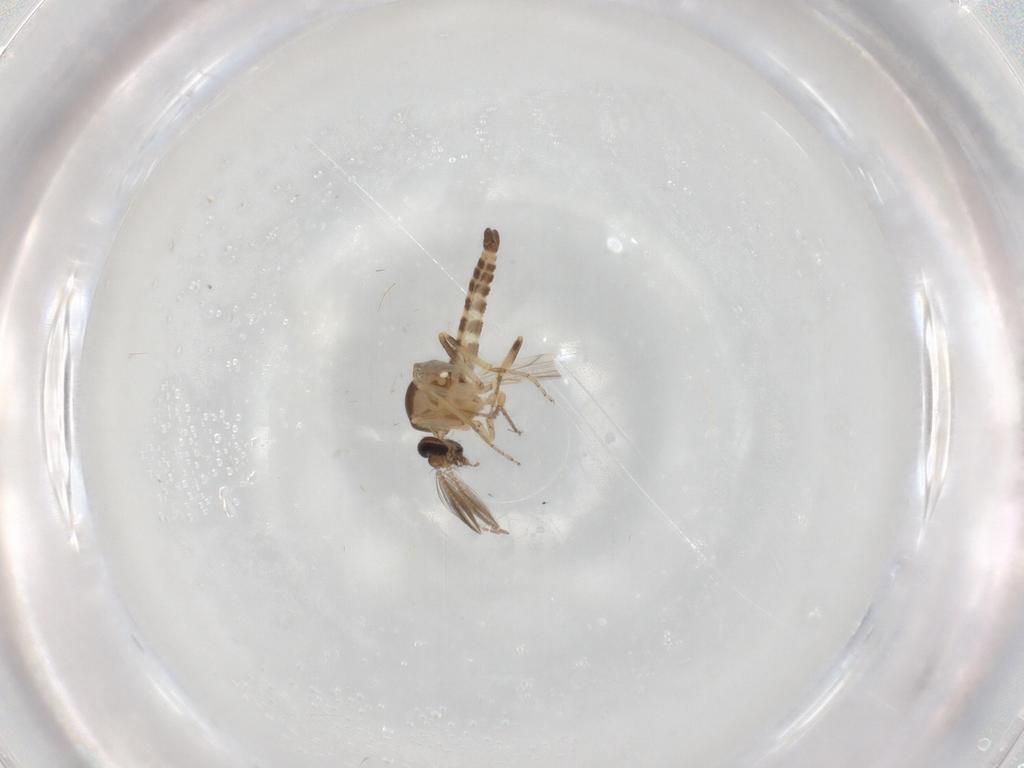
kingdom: Animalia
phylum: Arthropoda
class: Insecta
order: Diptera
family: Ceratopogonidae
